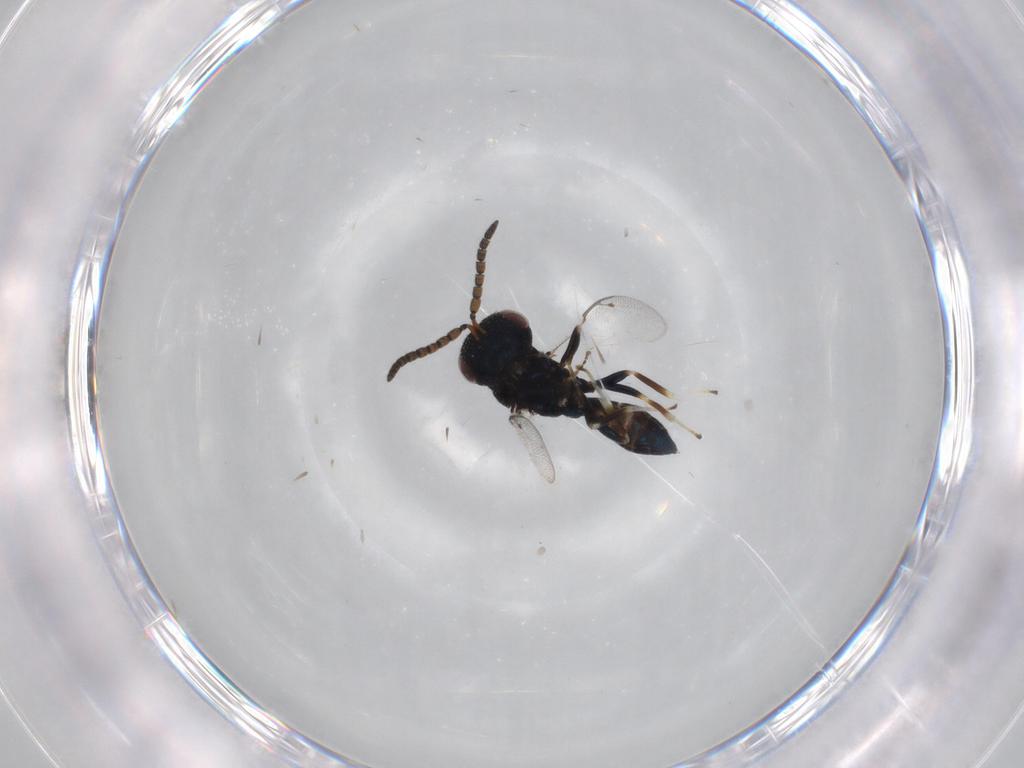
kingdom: Animalia
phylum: Arthropoda
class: Insecta
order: Hymenoptera
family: Pteromalidae
